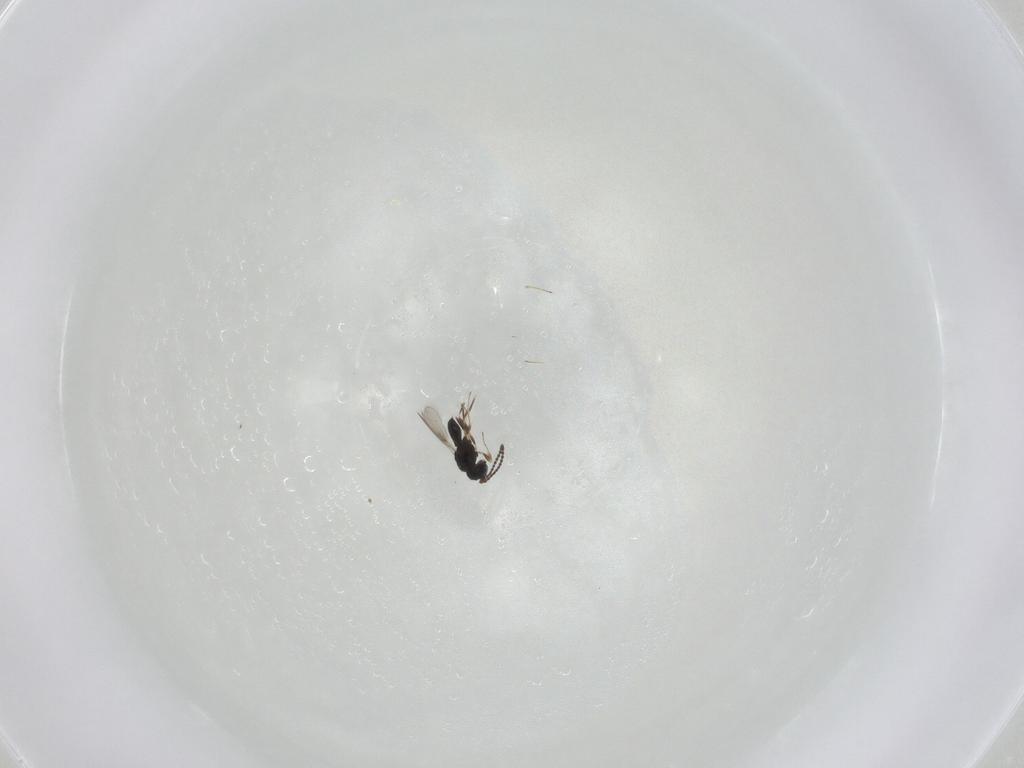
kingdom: Animalia
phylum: Arthropoda
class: Insecta
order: Hymenoptera
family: Scelionidae
